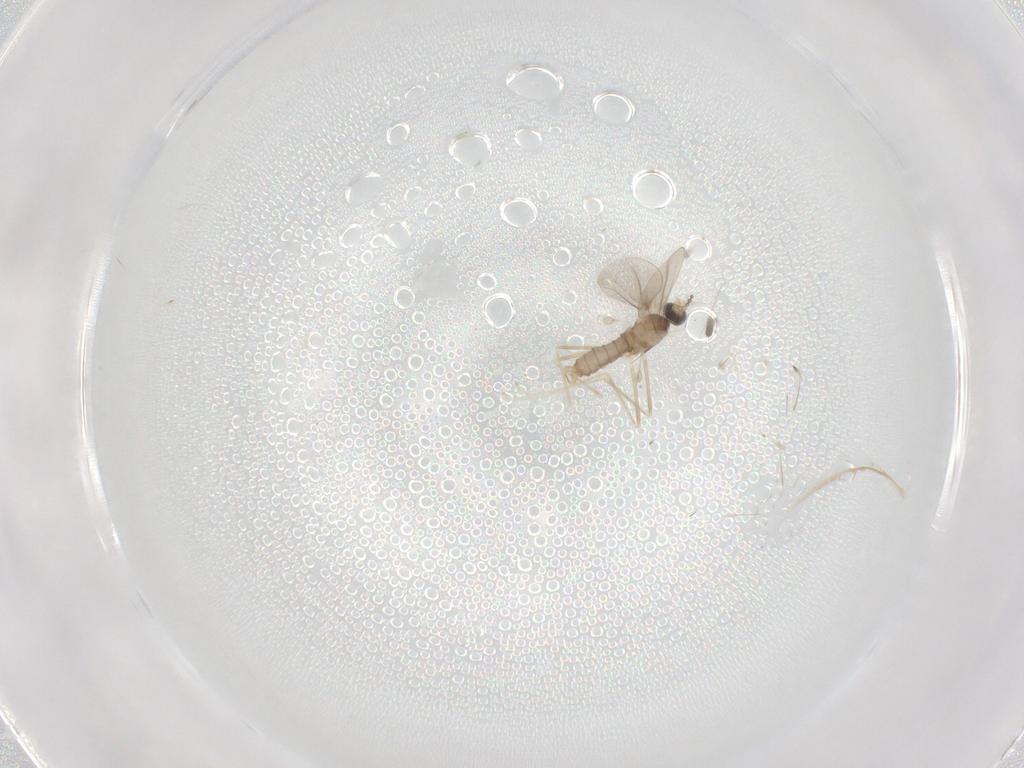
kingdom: Animalia
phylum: Arthropoda
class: Insecta
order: Diptera
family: Cecidomyiidae
